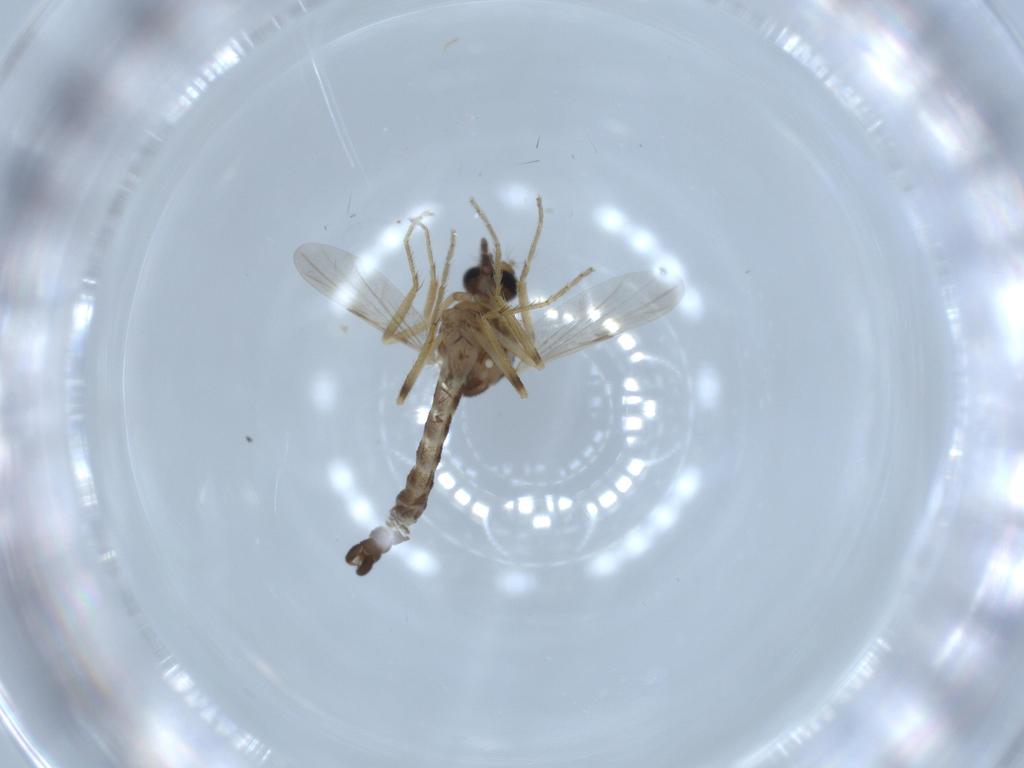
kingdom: Animalia
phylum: Arthropoda
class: Insecta
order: Diptera
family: Ceratopogonidae
